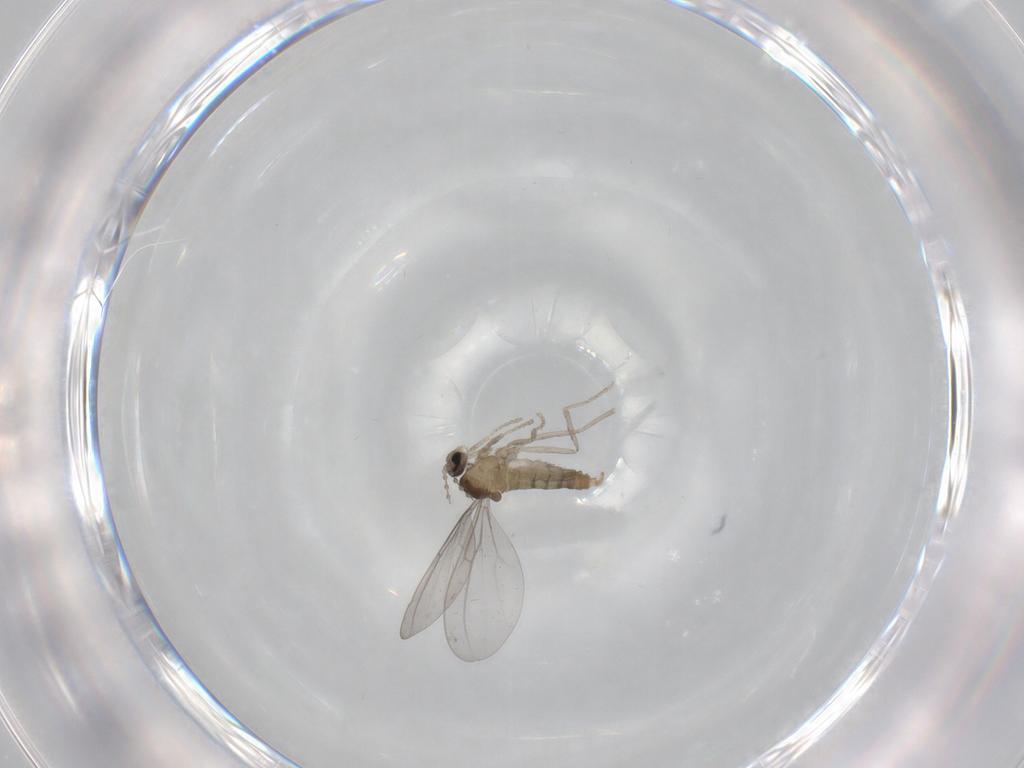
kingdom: Animalia
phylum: Arthropoda
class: Insecta
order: Diptera
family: Cecidomyiidae
